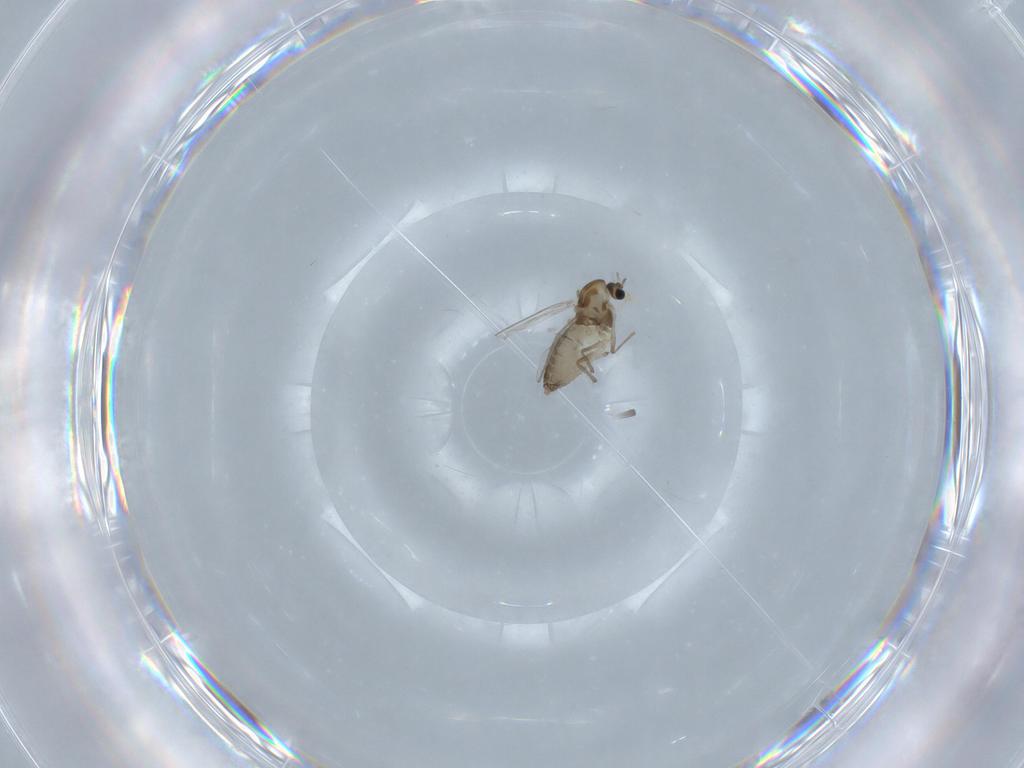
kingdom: Animalia
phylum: Arthropoda
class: Insecta
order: Diptera
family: Chironomidae
